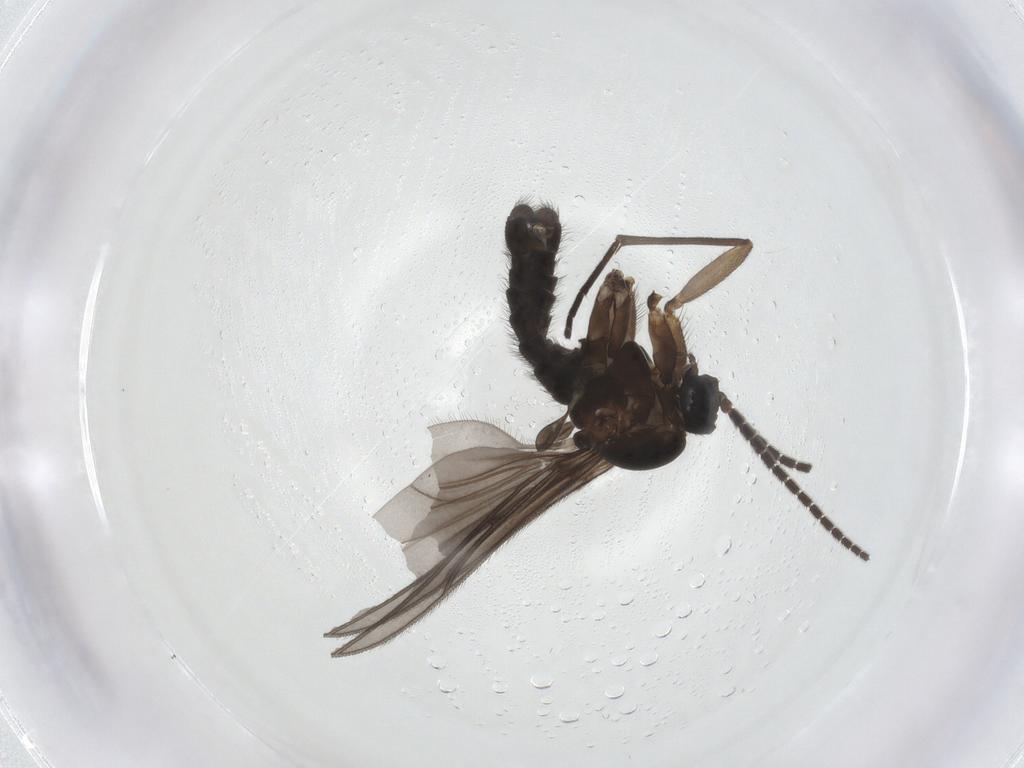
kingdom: Animalia
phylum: Arthropoda
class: Insecta
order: Diptera
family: Sciaridae
